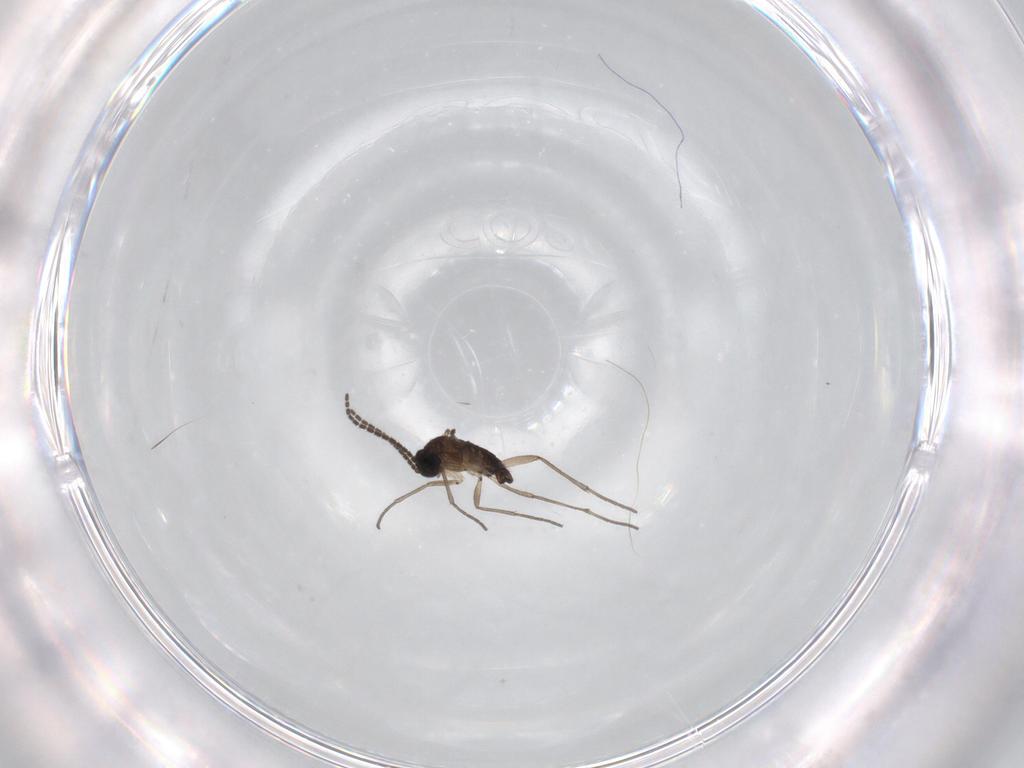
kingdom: Animalia
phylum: Arthropoda
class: Insecta
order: Diptera
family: Sciaridae
